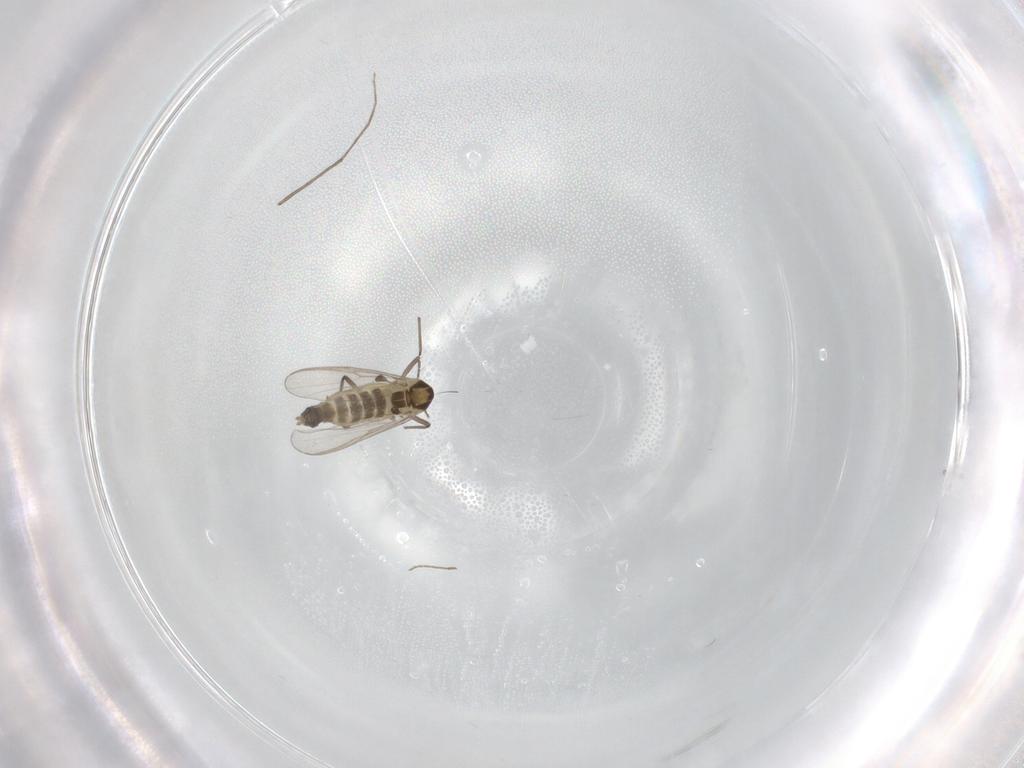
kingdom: Animalia
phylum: Arthropoda
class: Insecta
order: Diptera
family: Chironomidae
